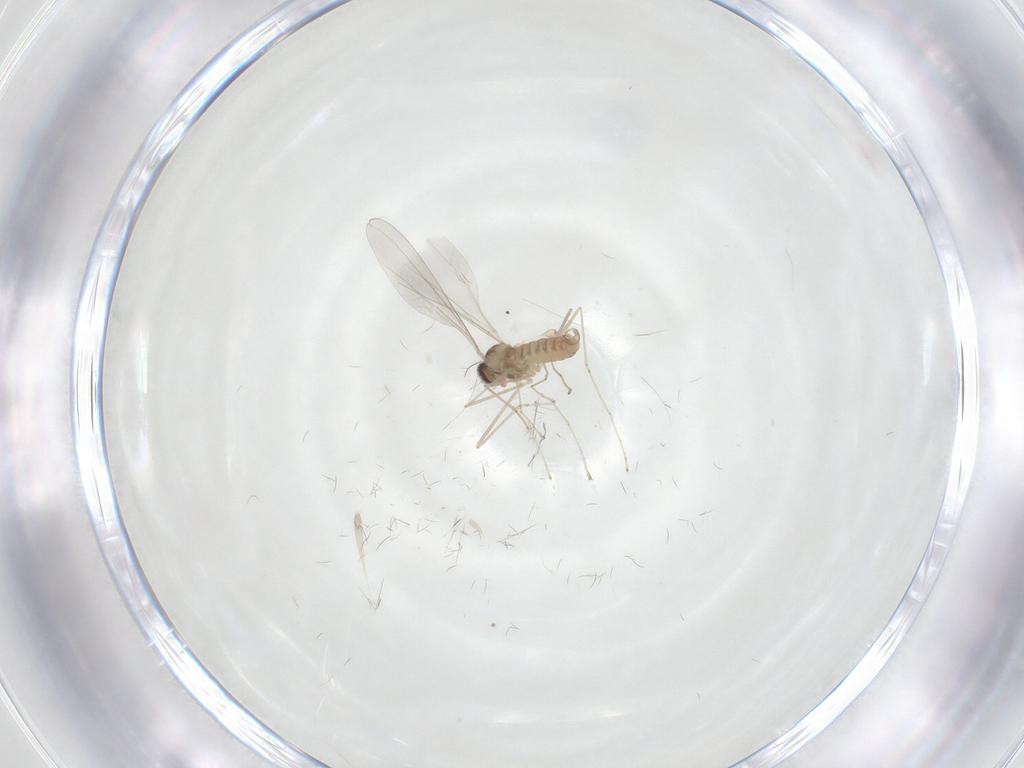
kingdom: Animalia
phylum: Arthropoda
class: Insecta
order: Diptera
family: Cecidomyiidae
